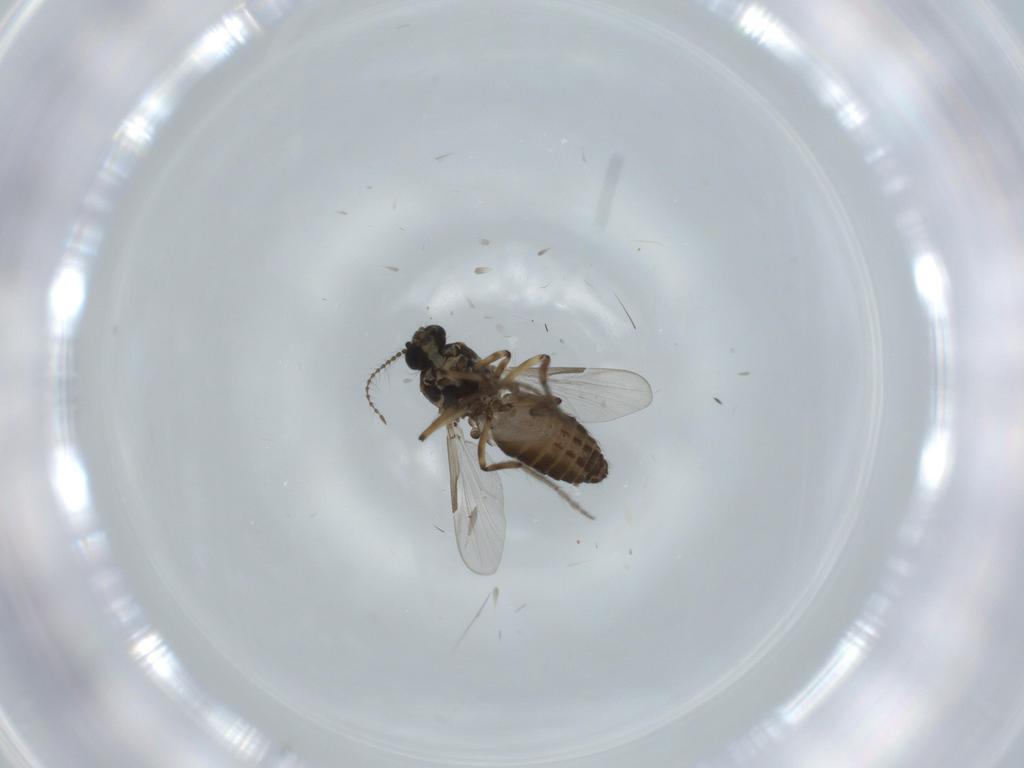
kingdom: Animalia
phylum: Arthropoda
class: Insecta
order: Diptera
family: Ceratopogonidae
